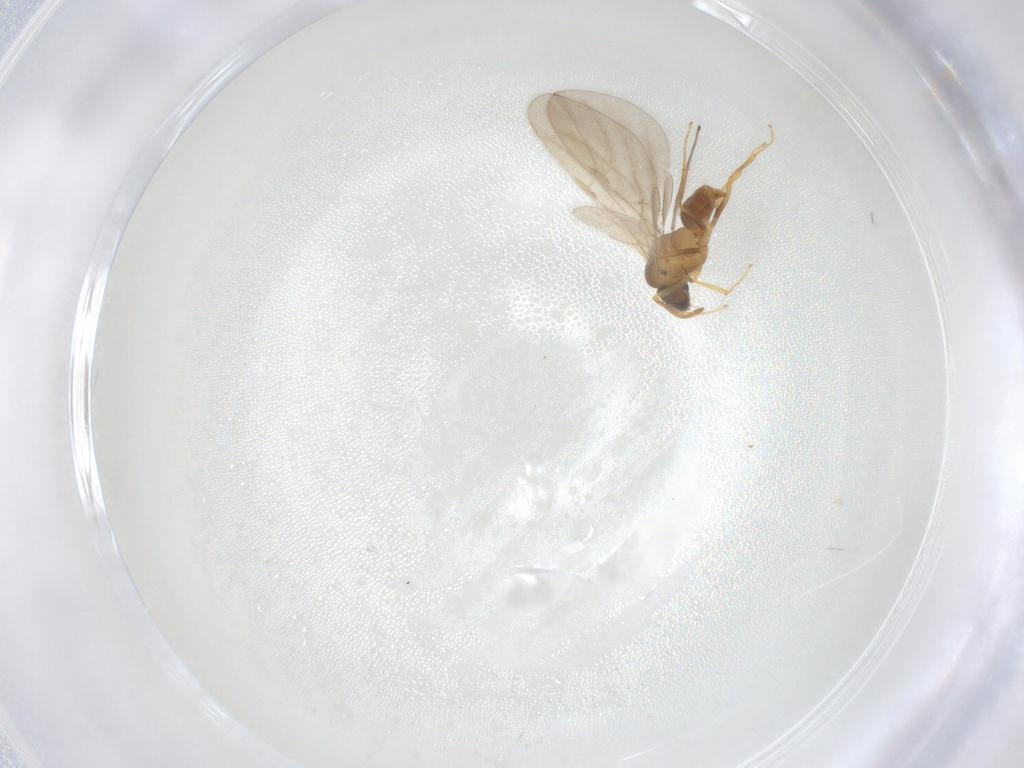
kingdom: Animalia
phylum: Arthropoda
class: Insecta
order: Hymenoptera
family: Formicidae
